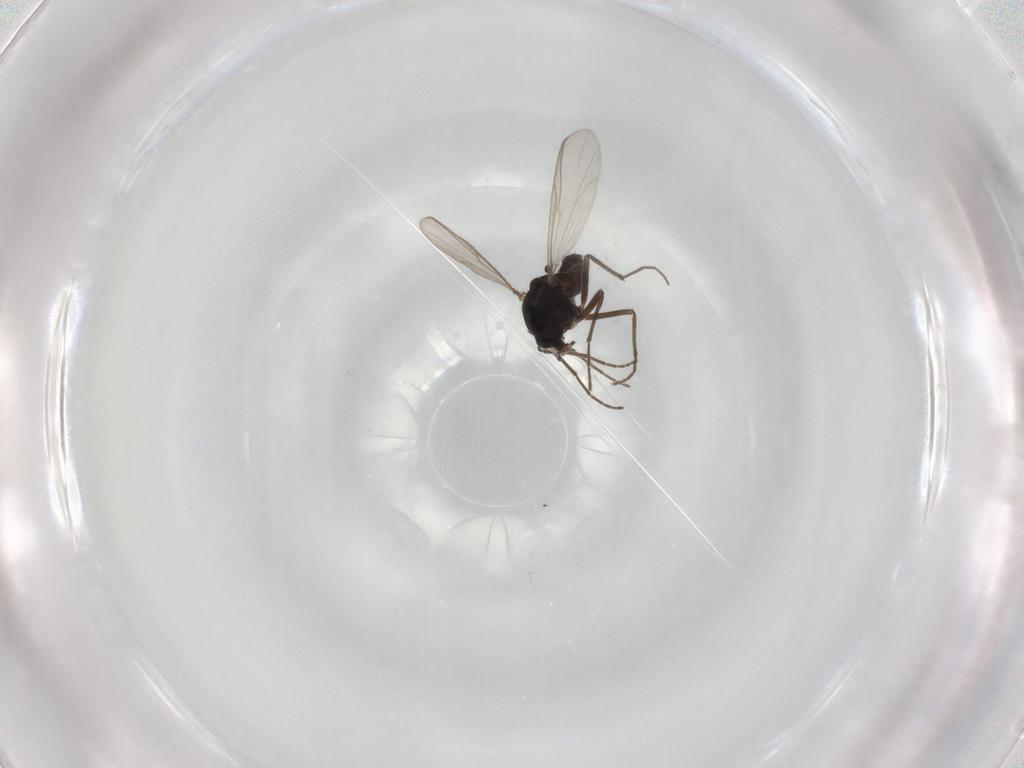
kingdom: Animalia
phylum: Arthropoda
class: Insecta
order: Diptera
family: Chironomidae
